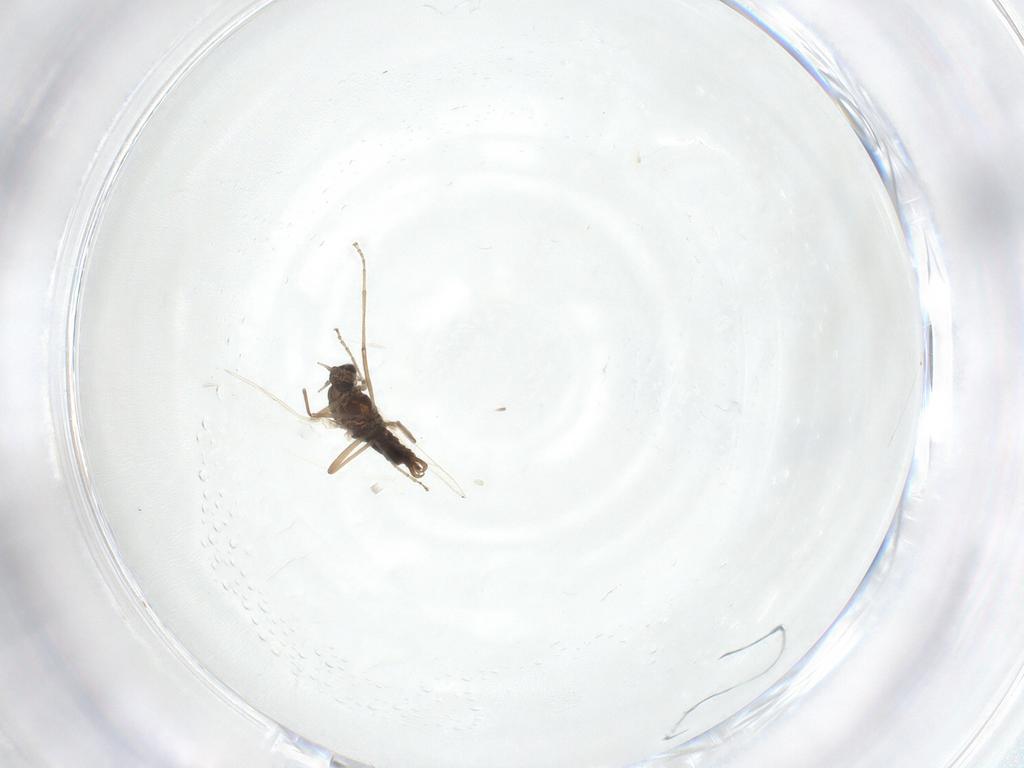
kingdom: Animalia
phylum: Arthropoda
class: Insecta
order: Diptera
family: Cecidomyiidae
